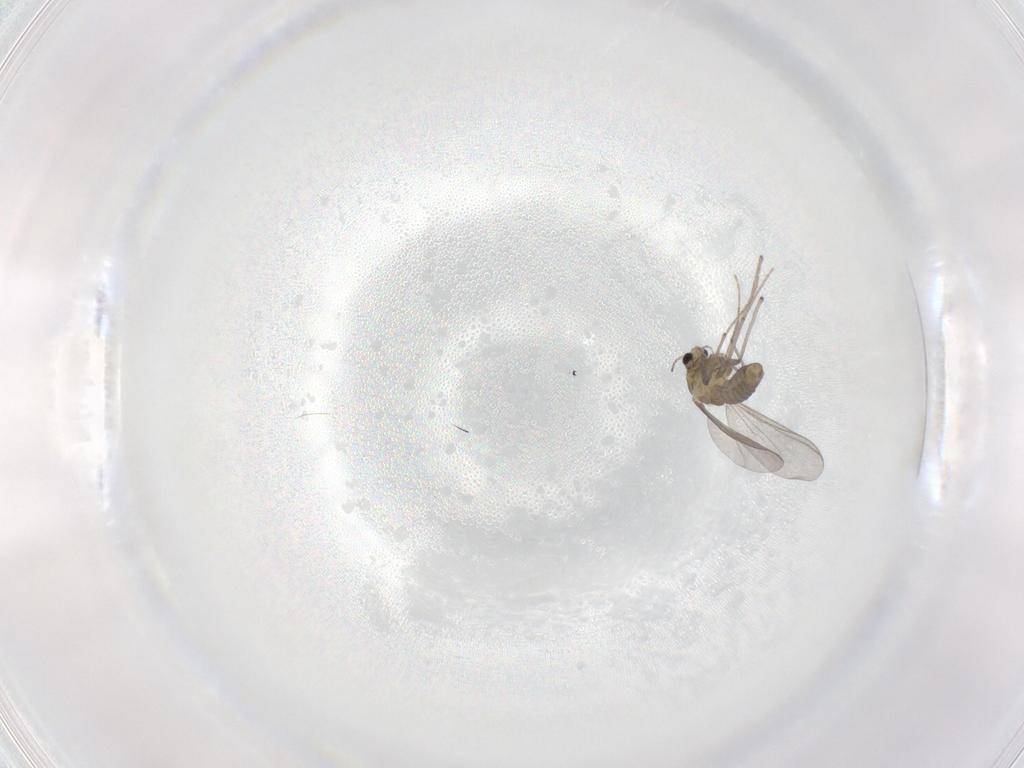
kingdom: Animalia
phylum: Arthropoda
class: Insecta
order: Diptera
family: Chironomidae
